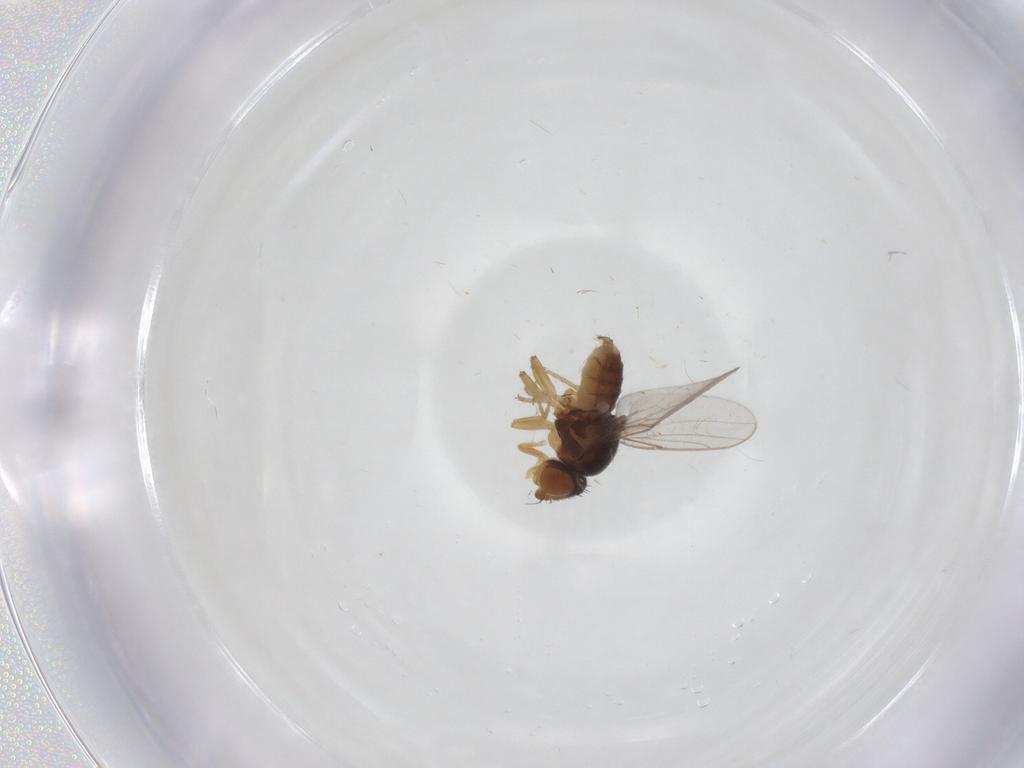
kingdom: Animalia
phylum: Arthropoda
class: Insecta
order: Diptera
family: Chloropidae
